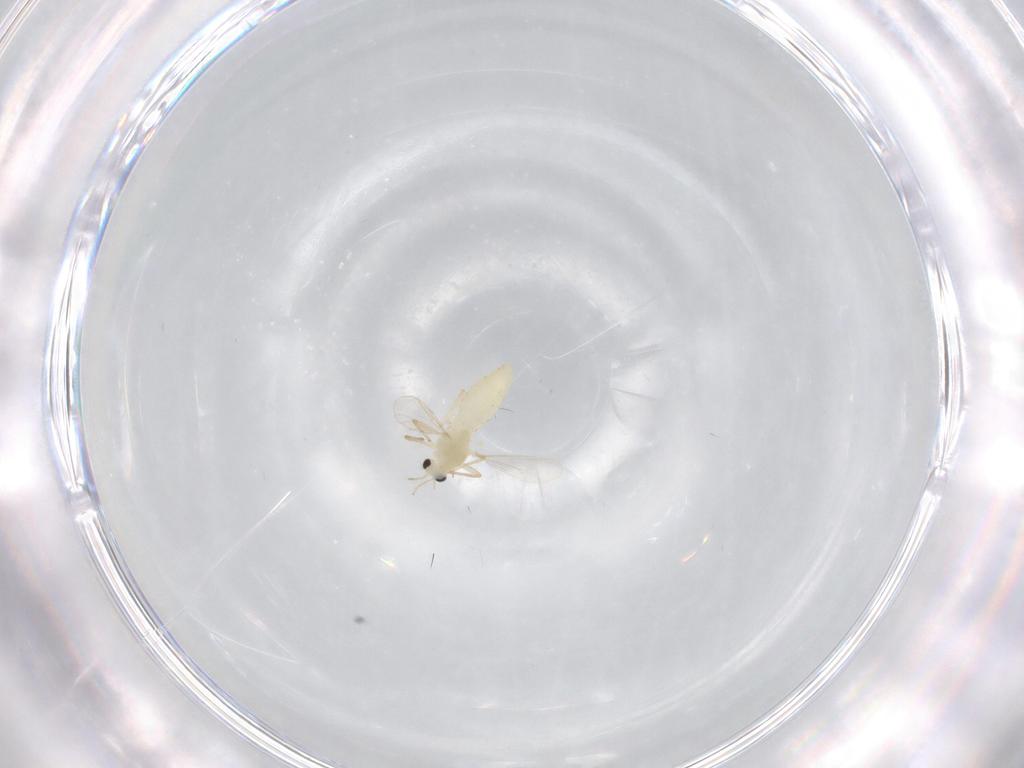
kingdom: Animalia
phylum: Arthropoda
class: Insecta
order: Diptera
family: Chironomidae
